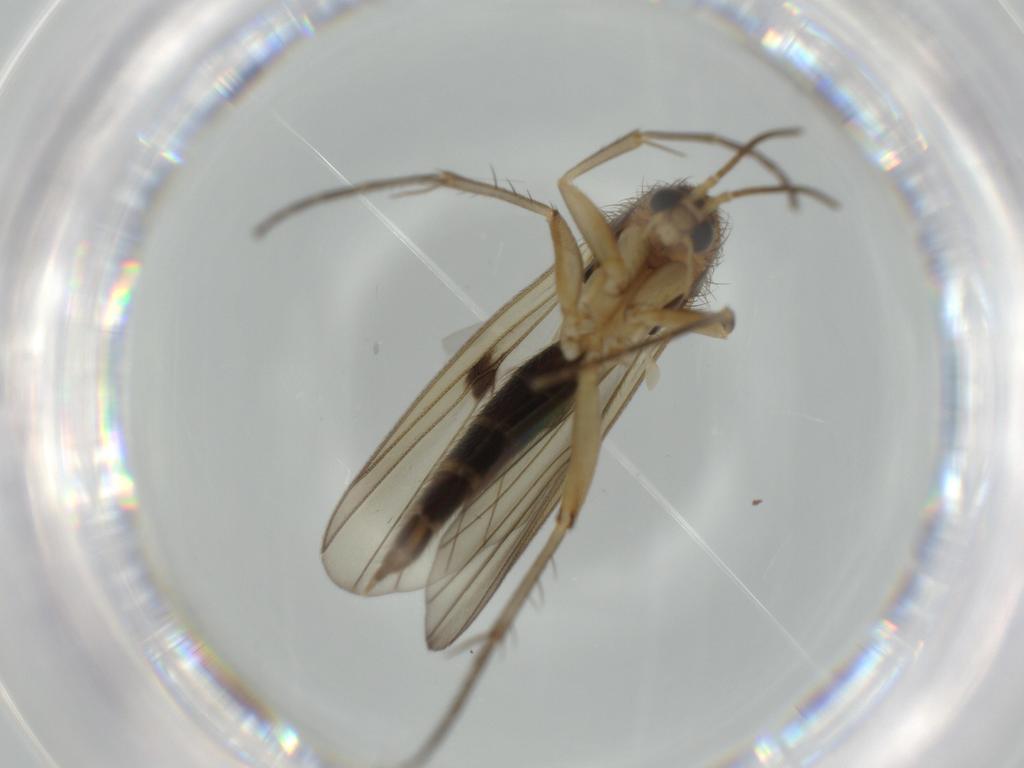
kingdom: Animalia
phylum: Arthropoda
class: Insecta
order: Diptera
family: Mycetophilidae
